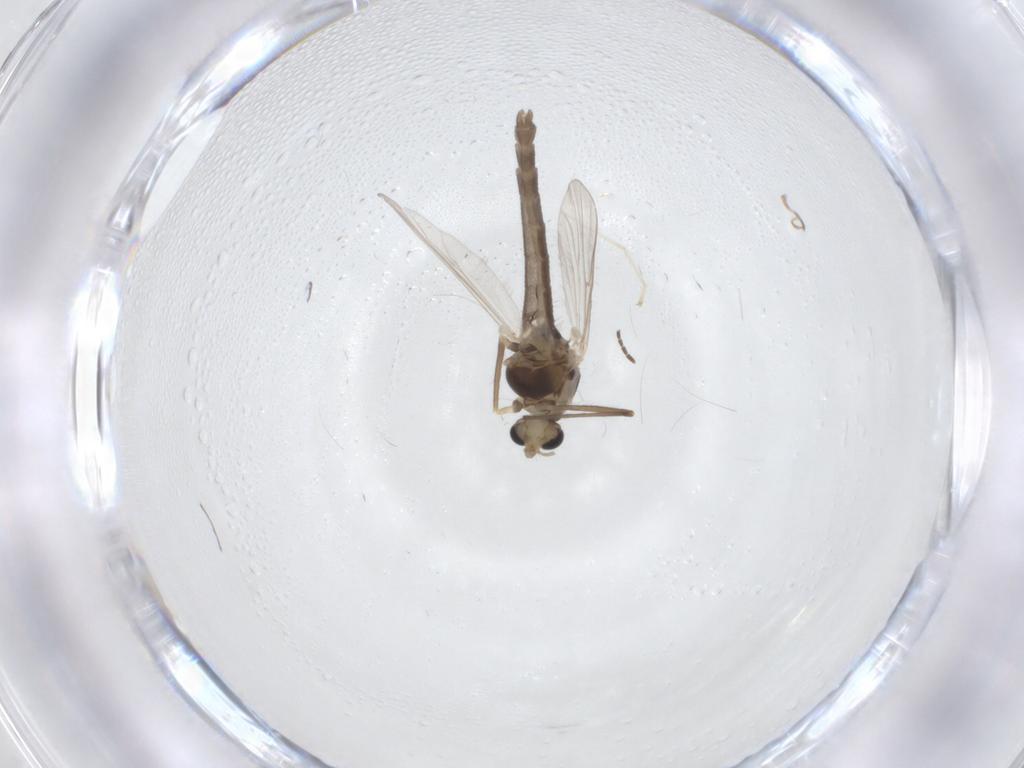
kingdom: Animalia
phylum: Arthropoda
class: Insecta
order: Diptera
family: Chironomidae
